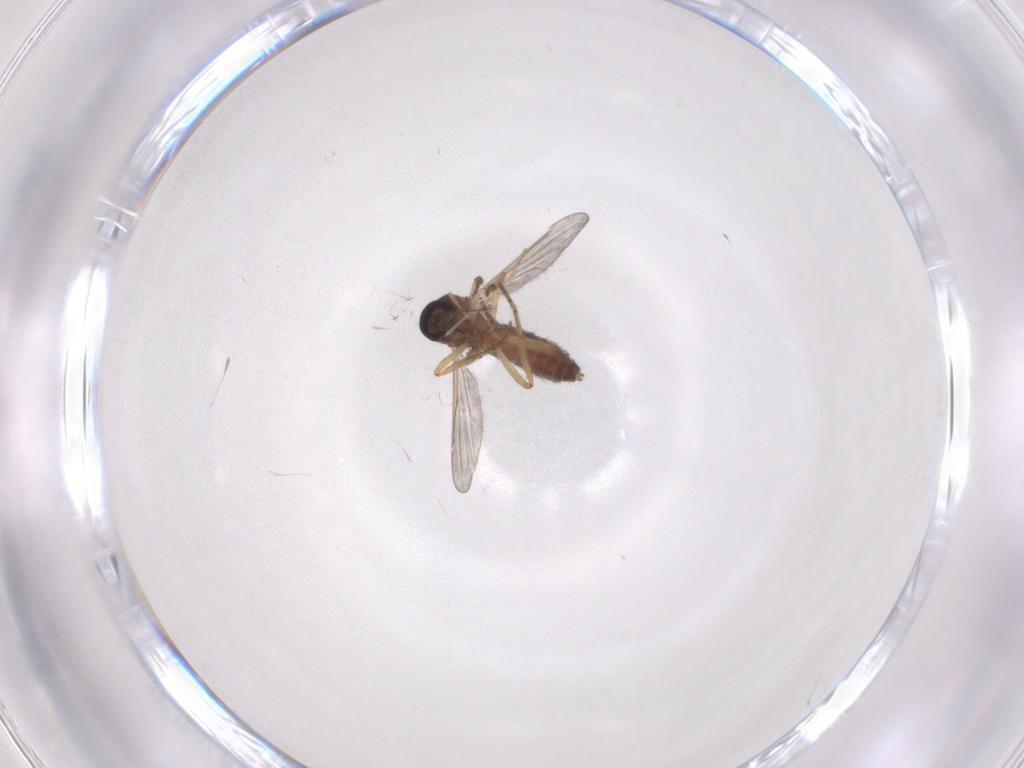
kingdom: Animalia
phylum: Arthropoda
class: Insecta
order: Diptera
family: Ceratopogonidae
